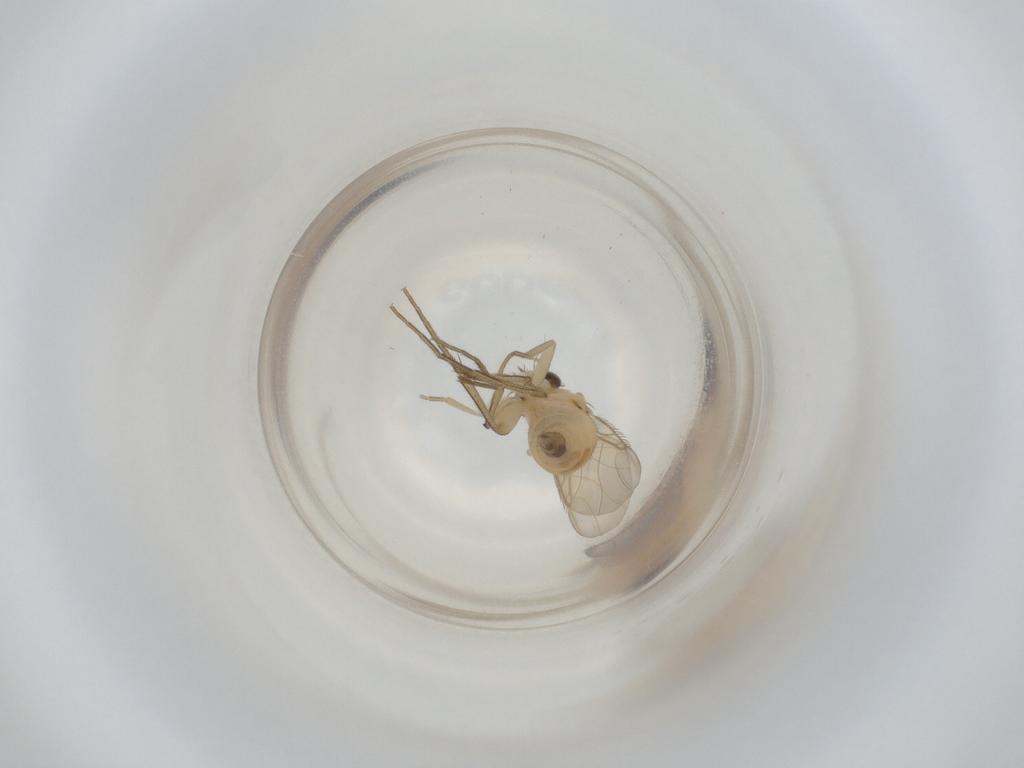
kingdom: Animalia
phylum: Arthropoda
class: Insecta
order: Diptera
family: Phoridae
